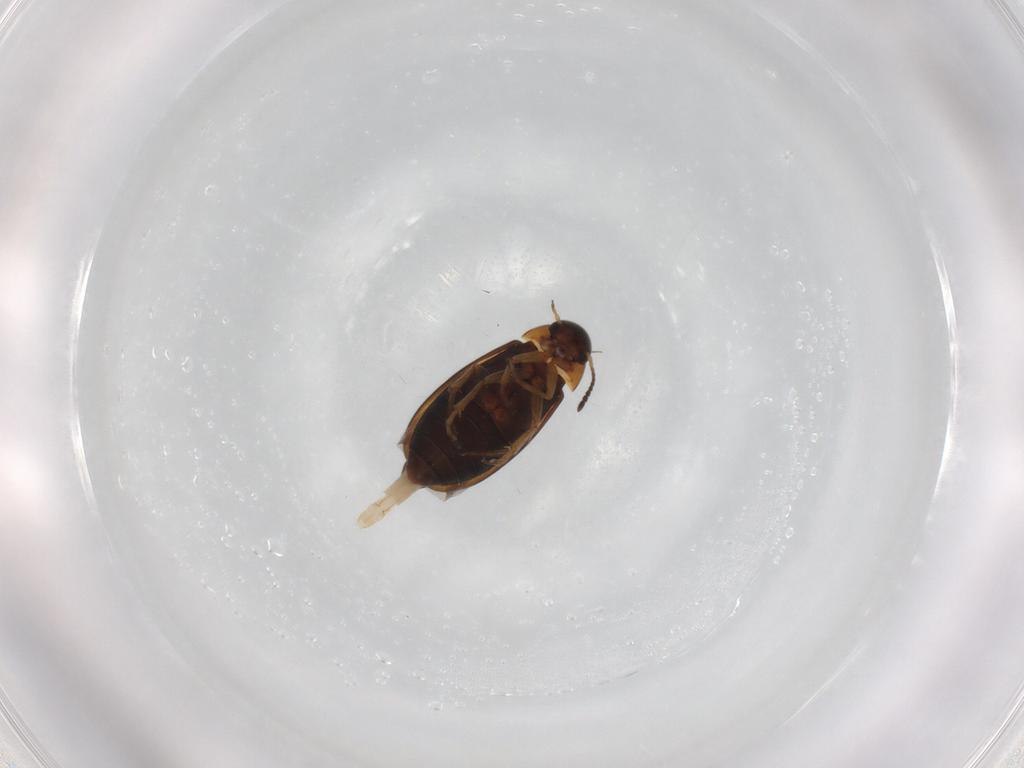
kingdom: Animalia
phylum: Arthropoda
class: Insecta
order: Coleoptera
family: Scraptiidae
